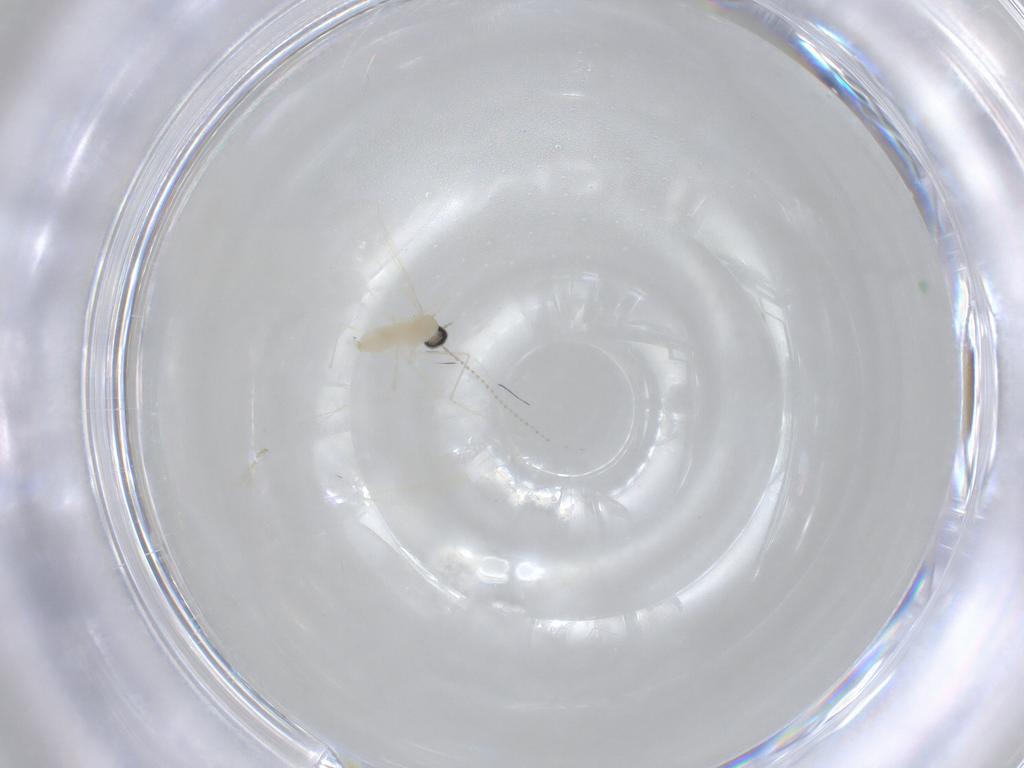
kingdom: Animalia
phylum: Arthropoda
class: Insecta
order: Diptera
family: Cecidomyiidae
